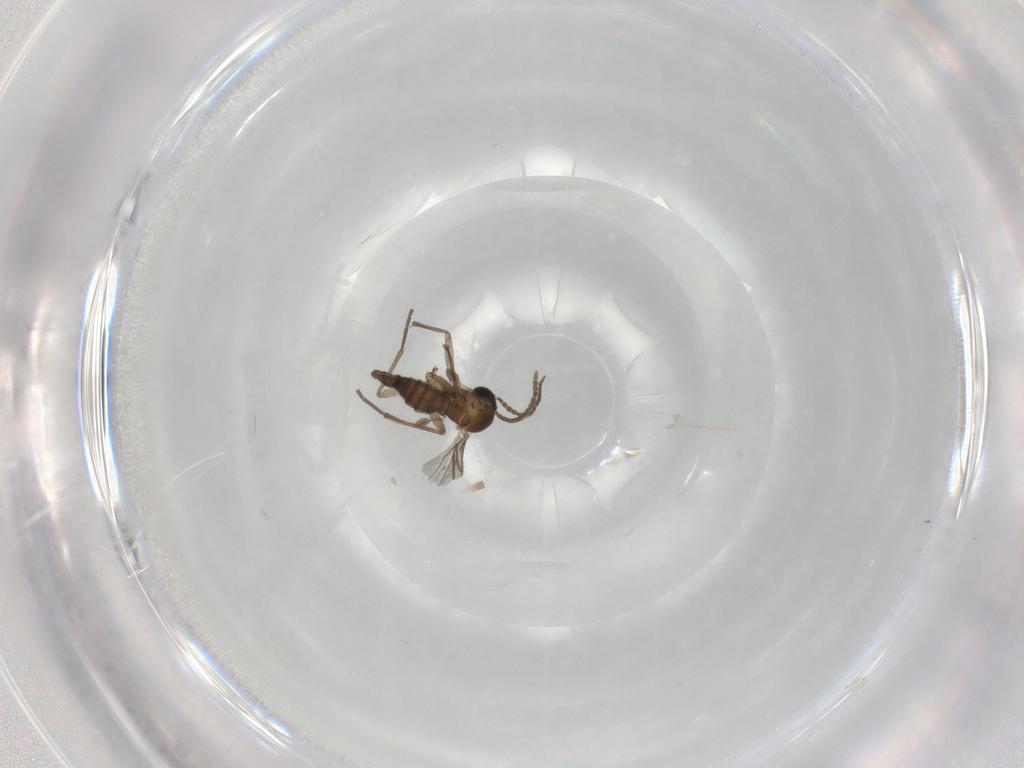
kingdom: Animalia
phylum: Arthropoda
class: Insecta
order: Diptera
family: Sciaridae
